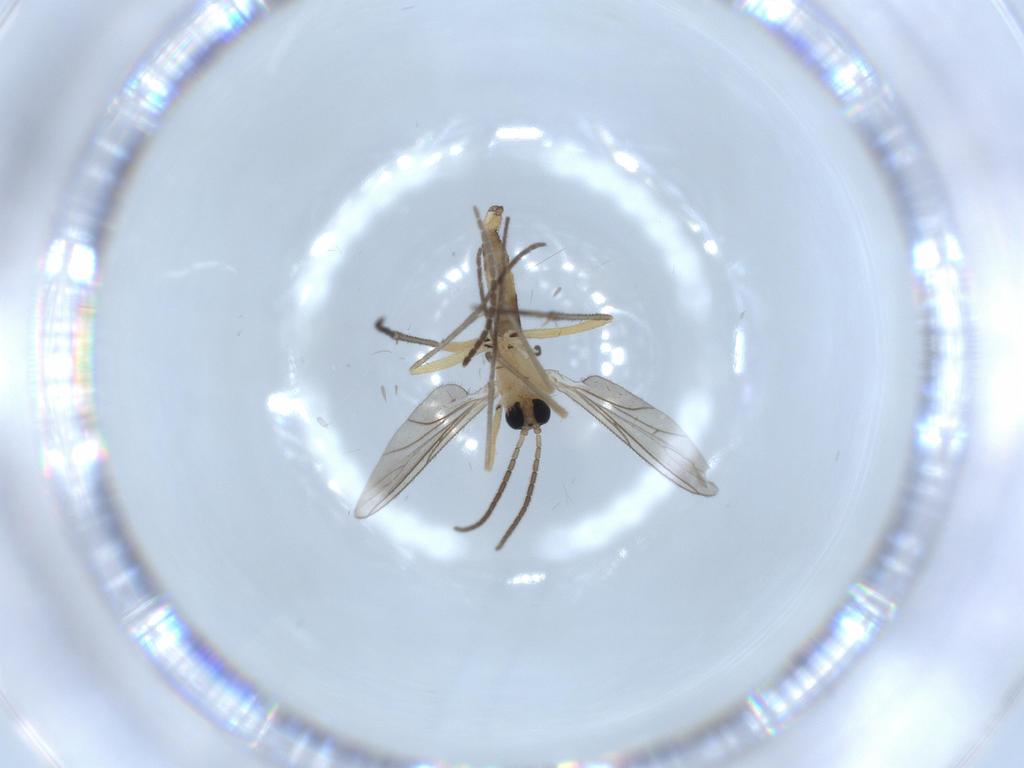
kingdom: Animalia
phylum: Arthropoda
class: Insecta
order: Diptera
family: Sciaridae
